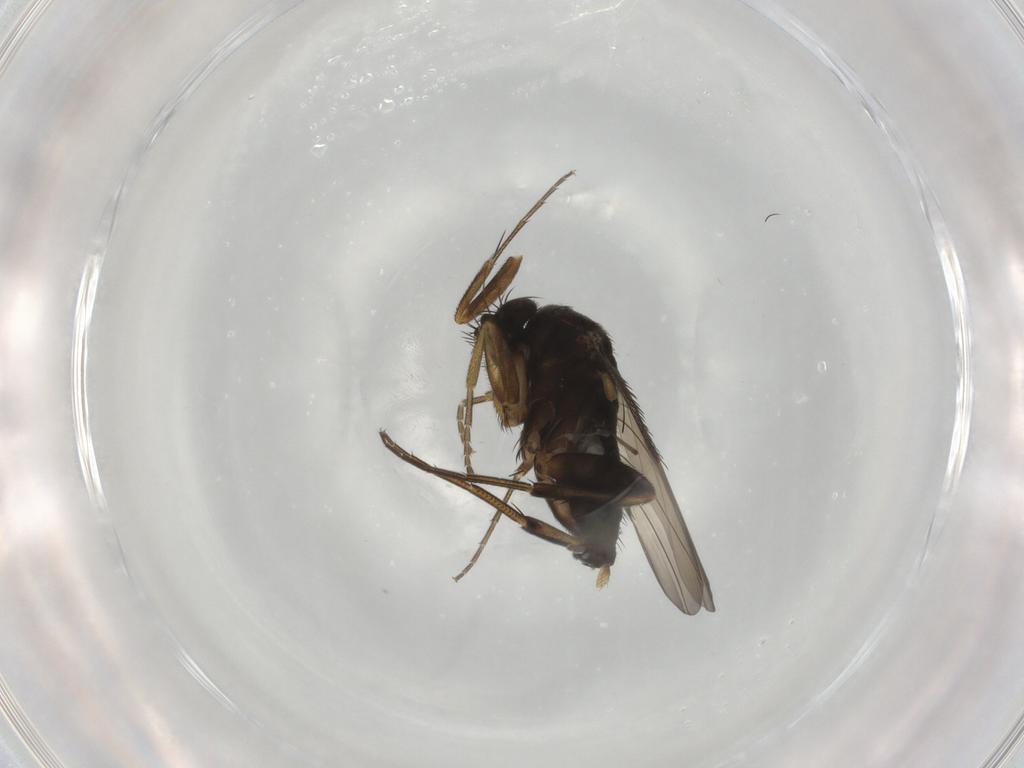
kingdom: Animalia
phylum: Arthropoda
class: Insecta
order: Diptera
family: Phoridae
